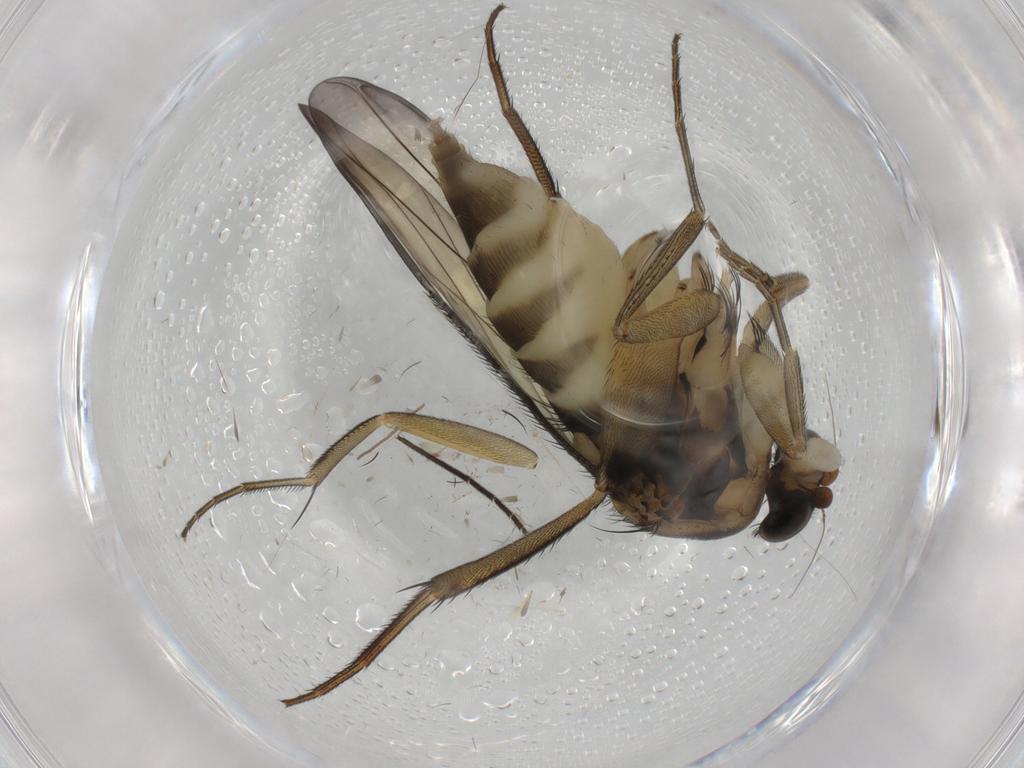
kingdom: Animalia
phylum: Arthropoda
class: Insecta
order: Diptera
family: Phoridae
